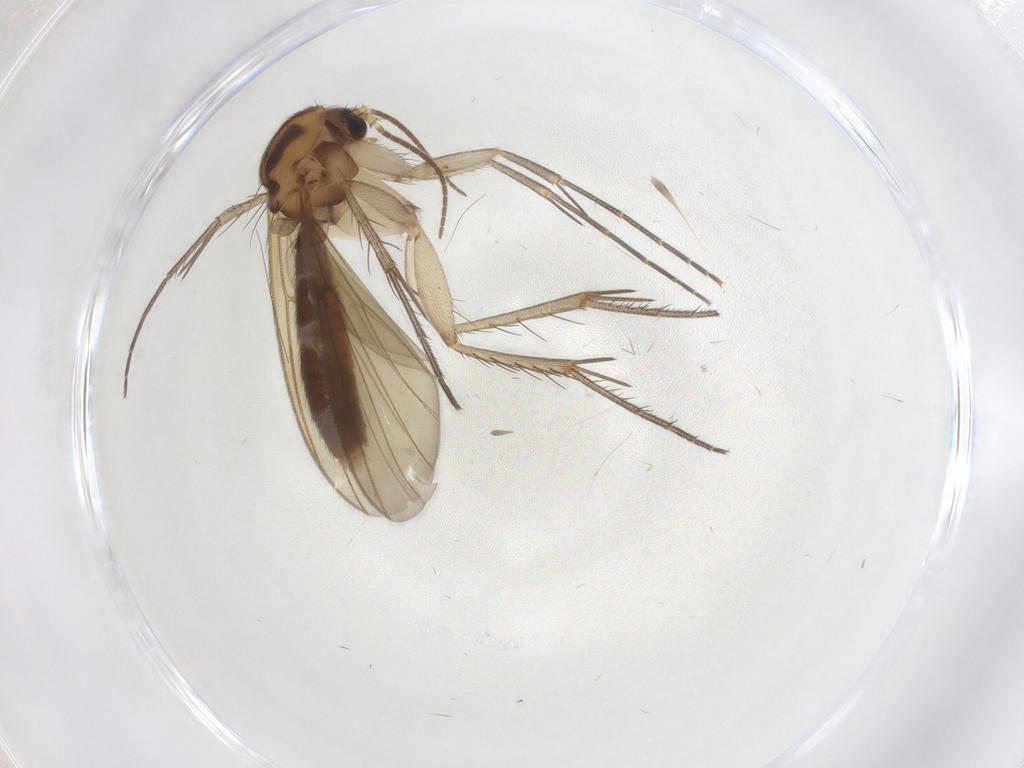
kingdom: Animalia
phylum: Arthropoda
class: Insecta
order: Diptera
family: Mycetophilidae
